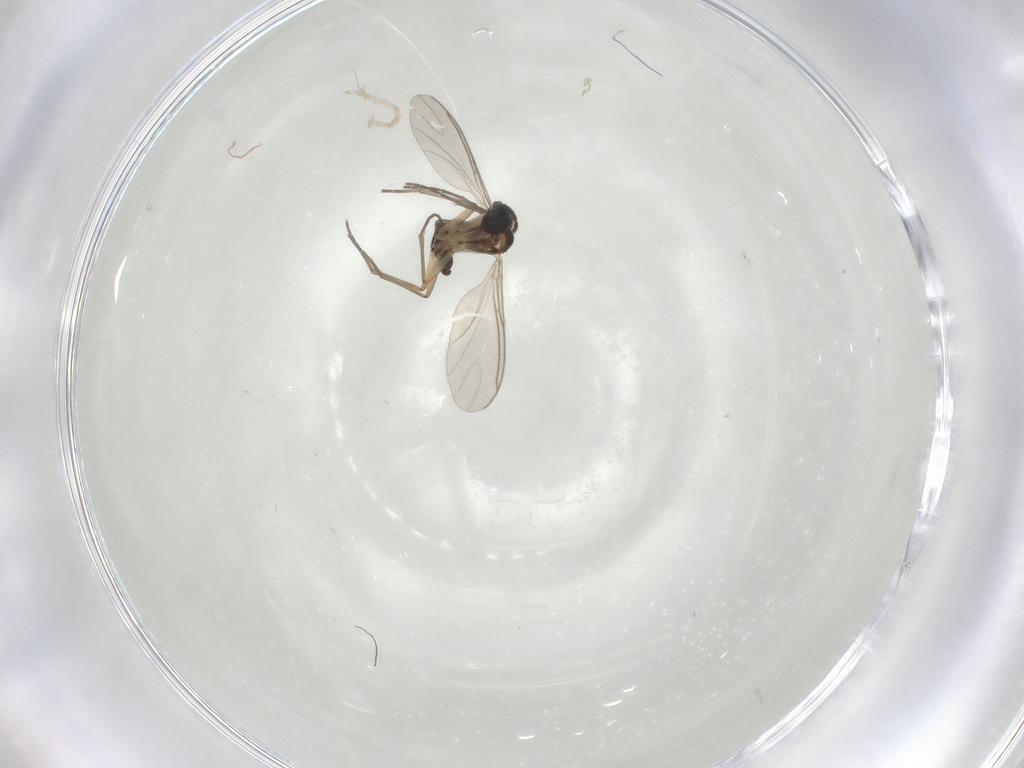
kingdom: Animalia
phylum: Arthropoda
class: Insecta
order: Diptera
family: Sciaridae
